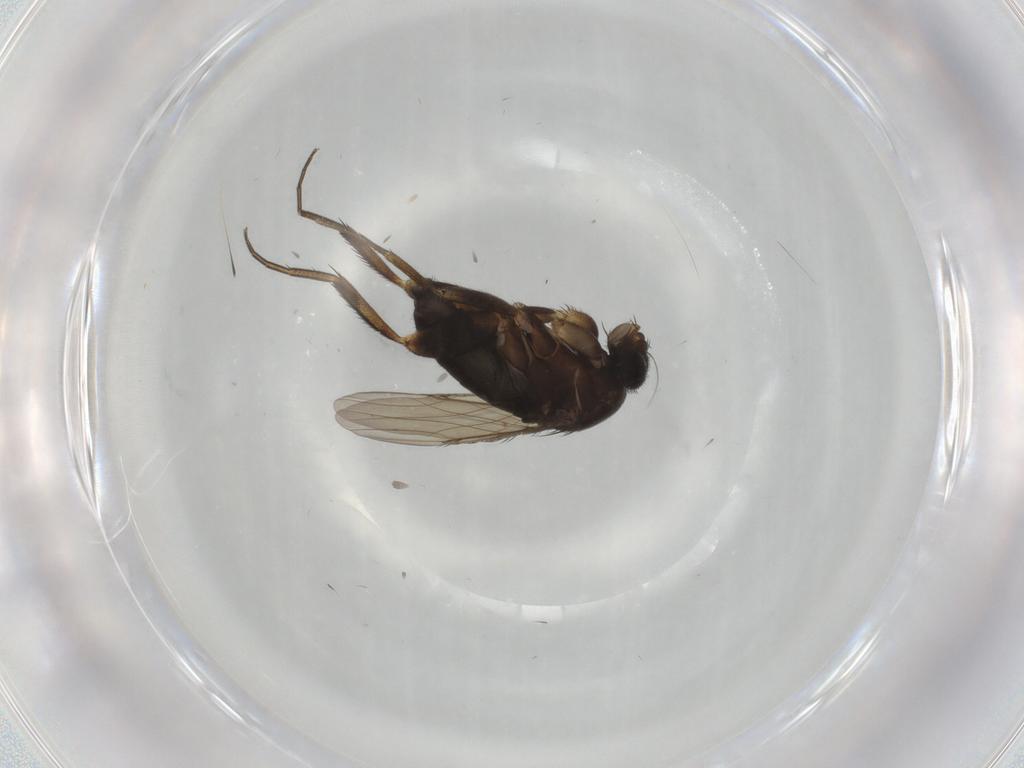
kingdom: Animalia
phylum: Arthropoda
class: Insecta
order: Diptera
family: Phoridae
